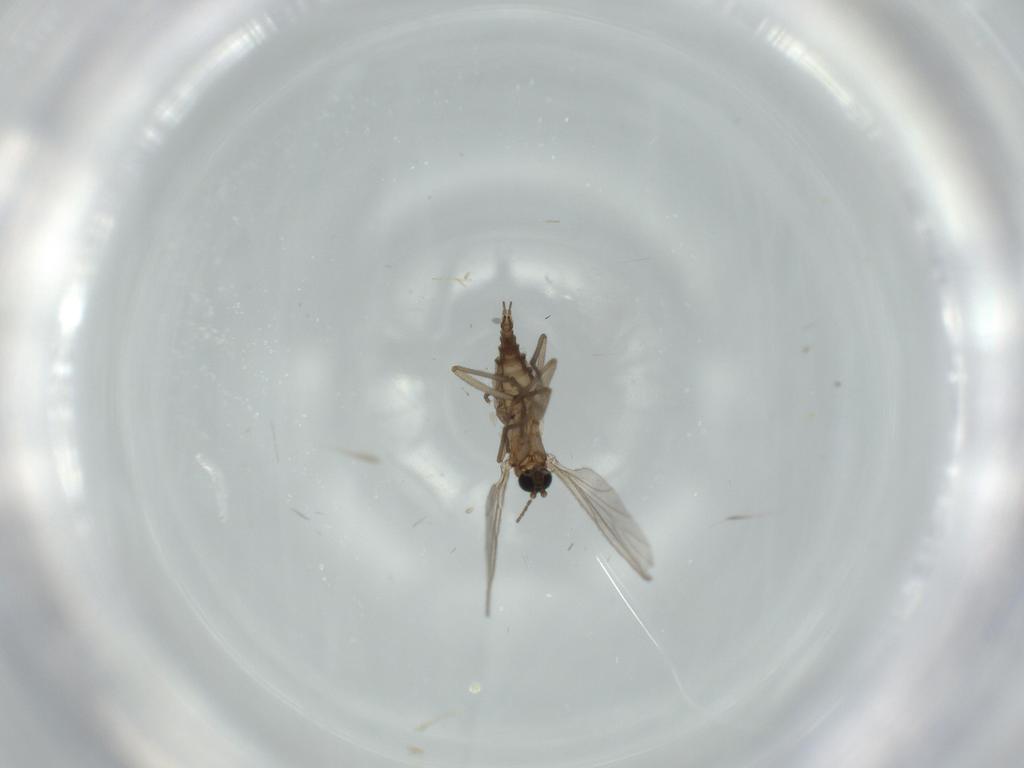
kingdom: Animalia
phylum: Arthropoda
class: Insecta
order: Diptera
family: Sciaridae
